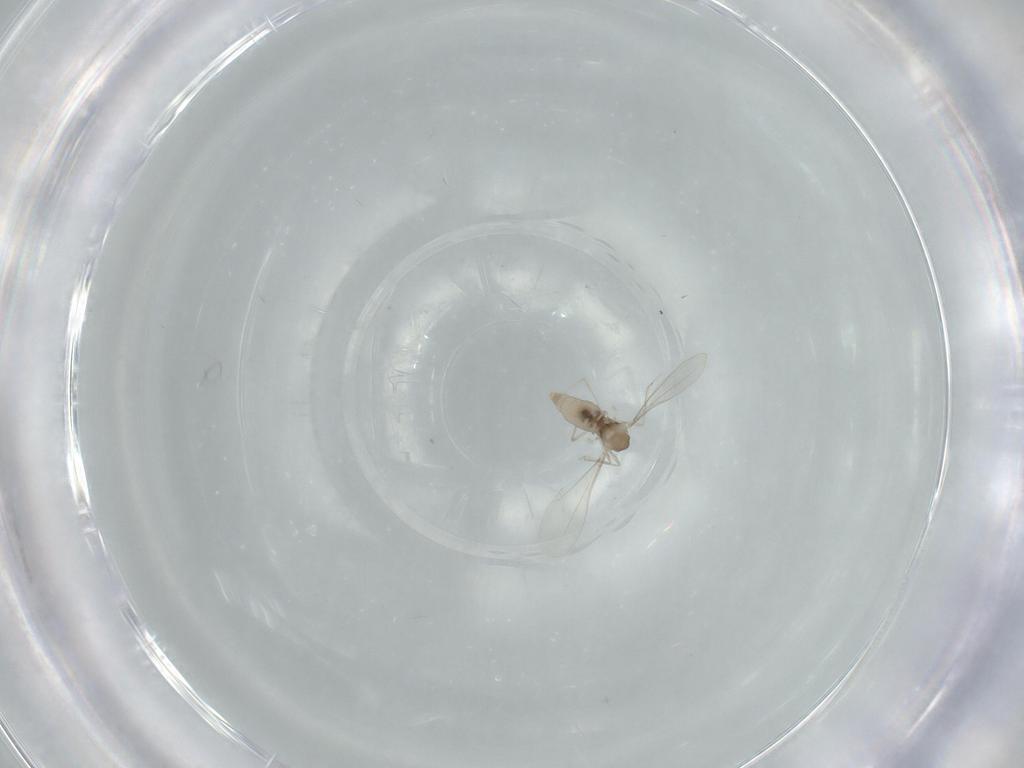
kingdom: Animalia
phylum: Arthropoda
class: Insecta
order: Diptera
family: Cecidomyiidae
